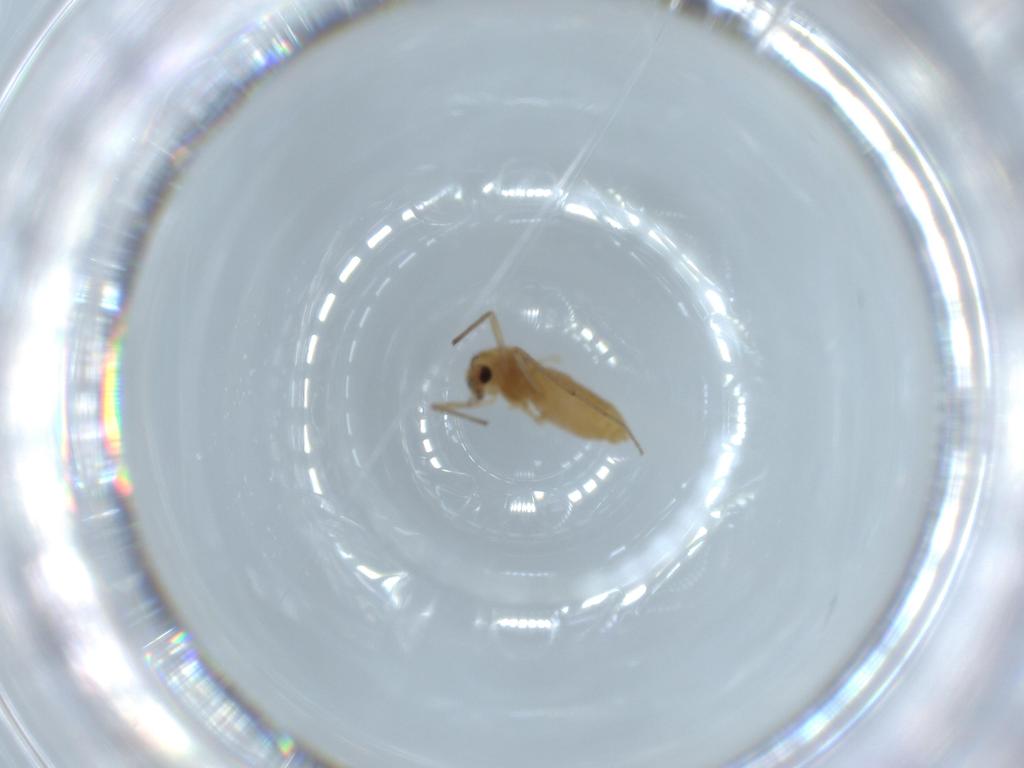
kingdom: Animalia
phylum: Arthropoda
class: Insecta
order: Diptera
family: Chironomidae
